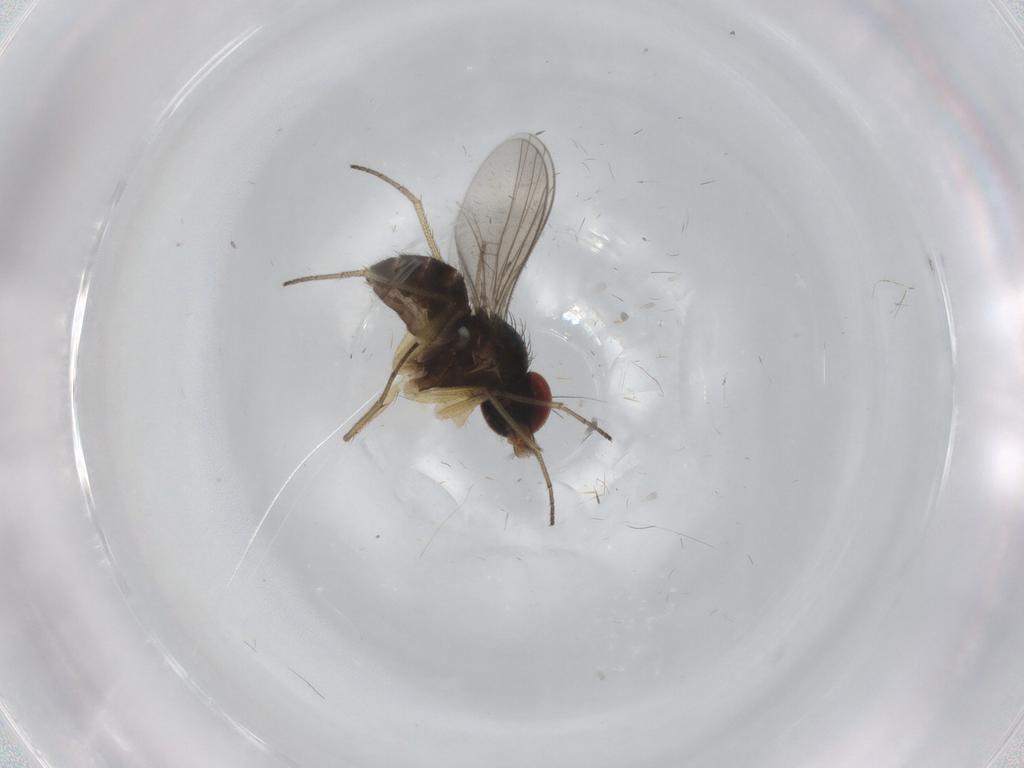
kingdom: Animalia
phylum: Arthropoda
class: Insecta
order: Diptera
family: Dolichopodidae
